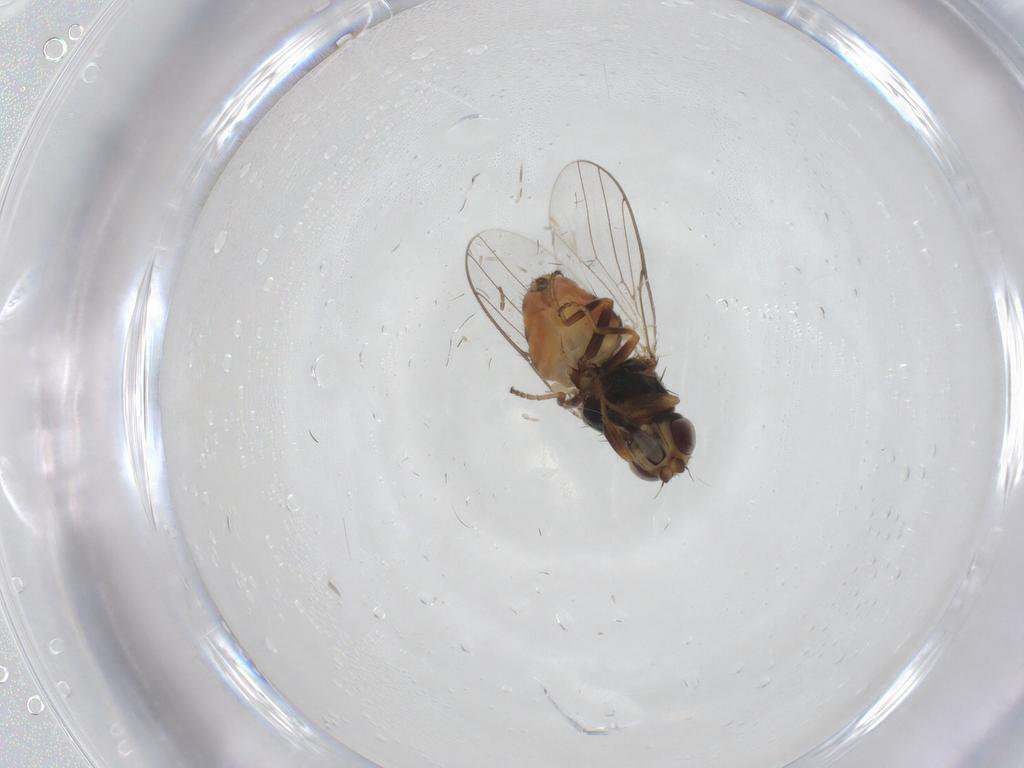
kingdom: Animalia
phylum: Arthropoda
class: Insecta
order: Diptera
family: Chloropidae
